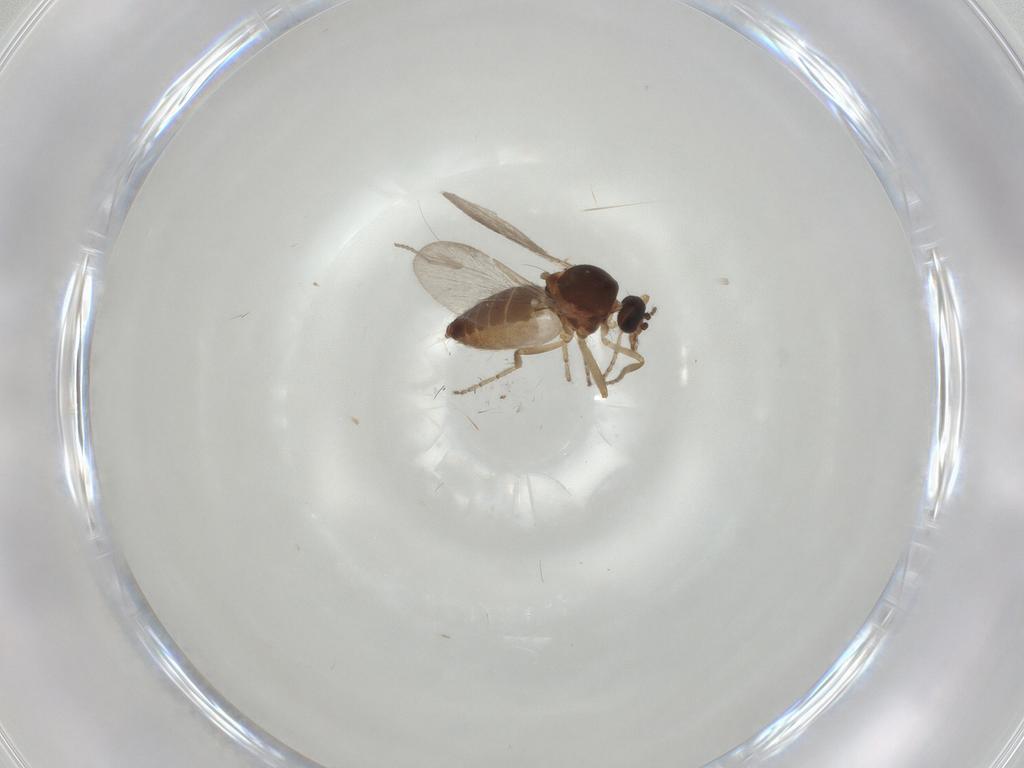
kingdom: Animalia
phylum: Arthropoda
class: Insecta
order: Diptera
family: Ceratopogonidae
